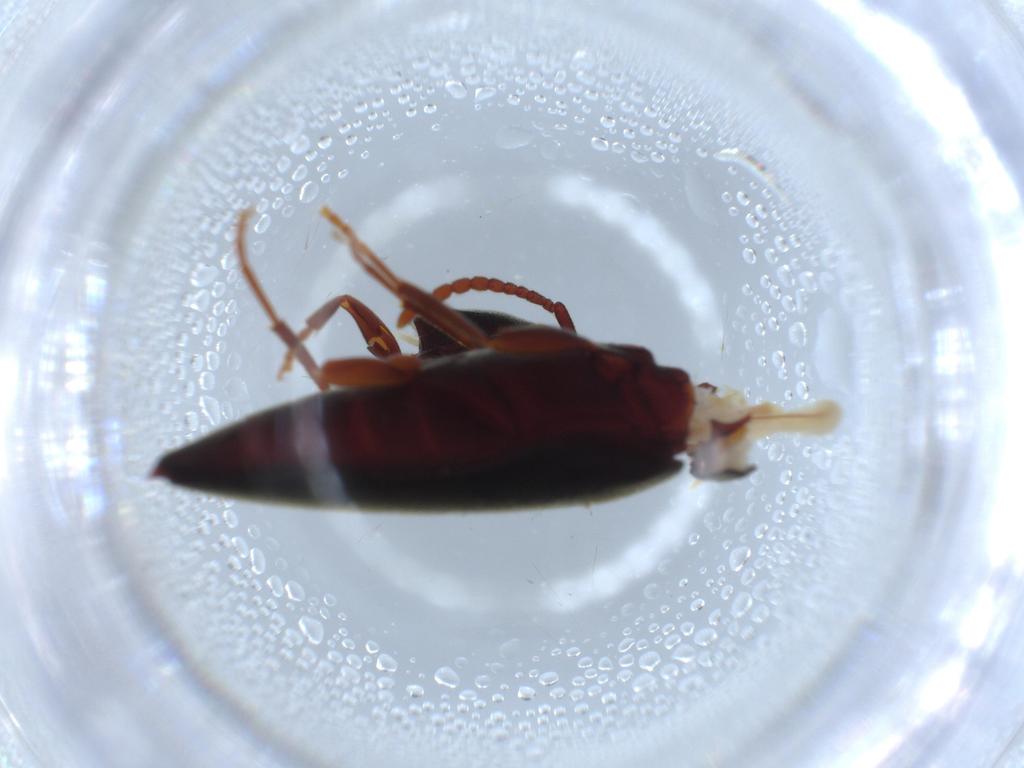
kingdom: Animalia
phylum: Arthropoda
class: Insecta
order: Coleoptera
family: Eucnemidae
